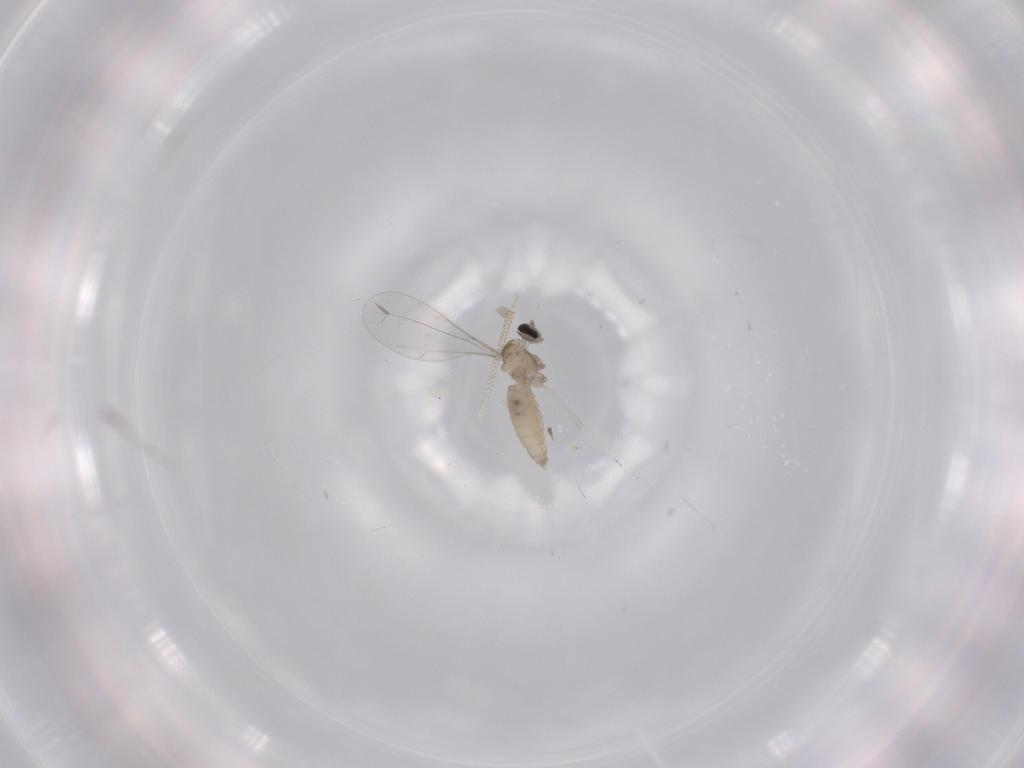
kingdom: Animalia
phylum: Arthropoda
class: Insecta
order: Diptera
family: Cecidomyiidae
